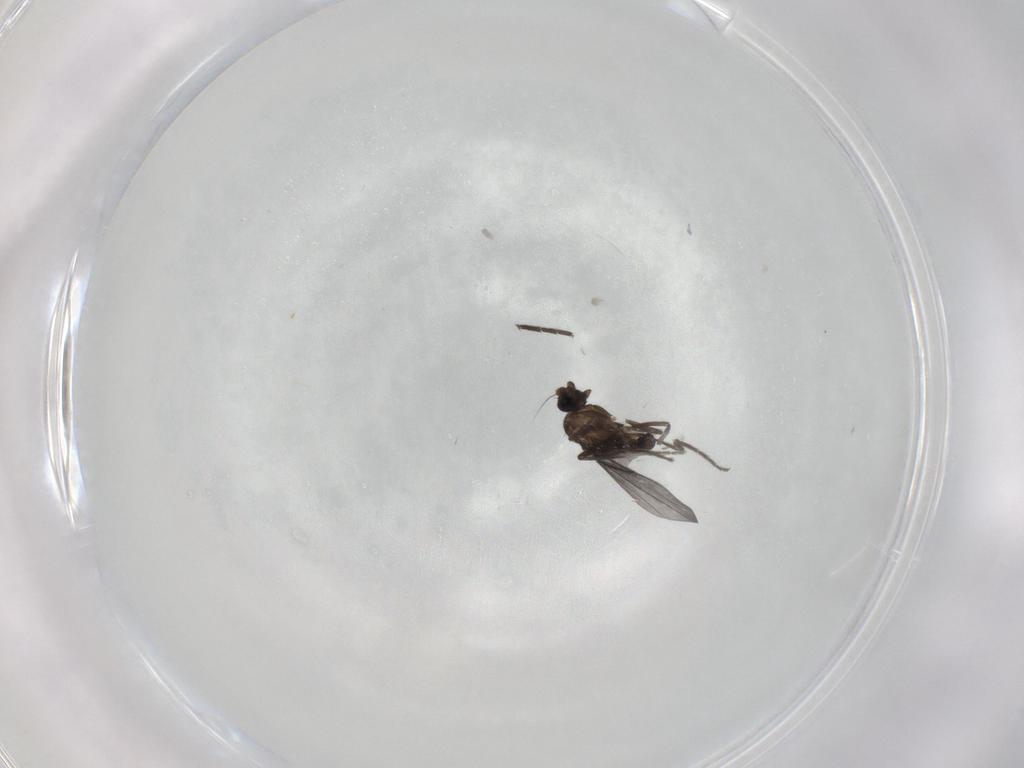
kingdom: Animalia
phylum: Arthropoda
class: Insecta
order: Diptera
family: Phoridae
